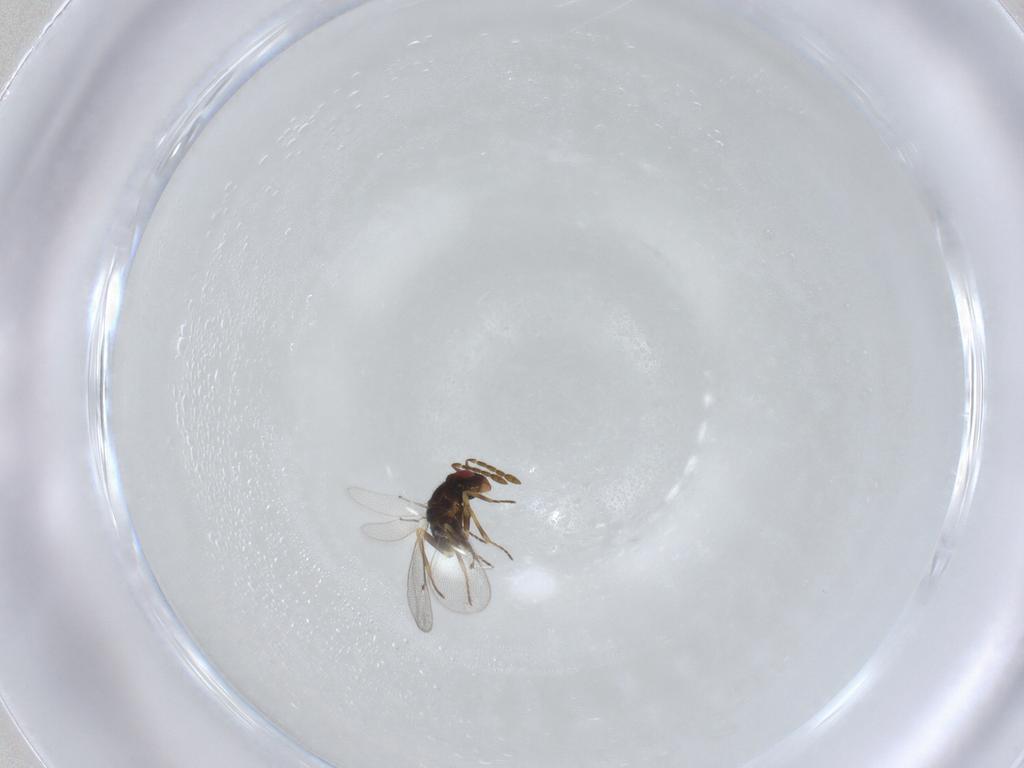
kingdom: Animalia
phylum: Arthropoda
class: Insecta
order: Hymenoptera
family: Eulophidae
